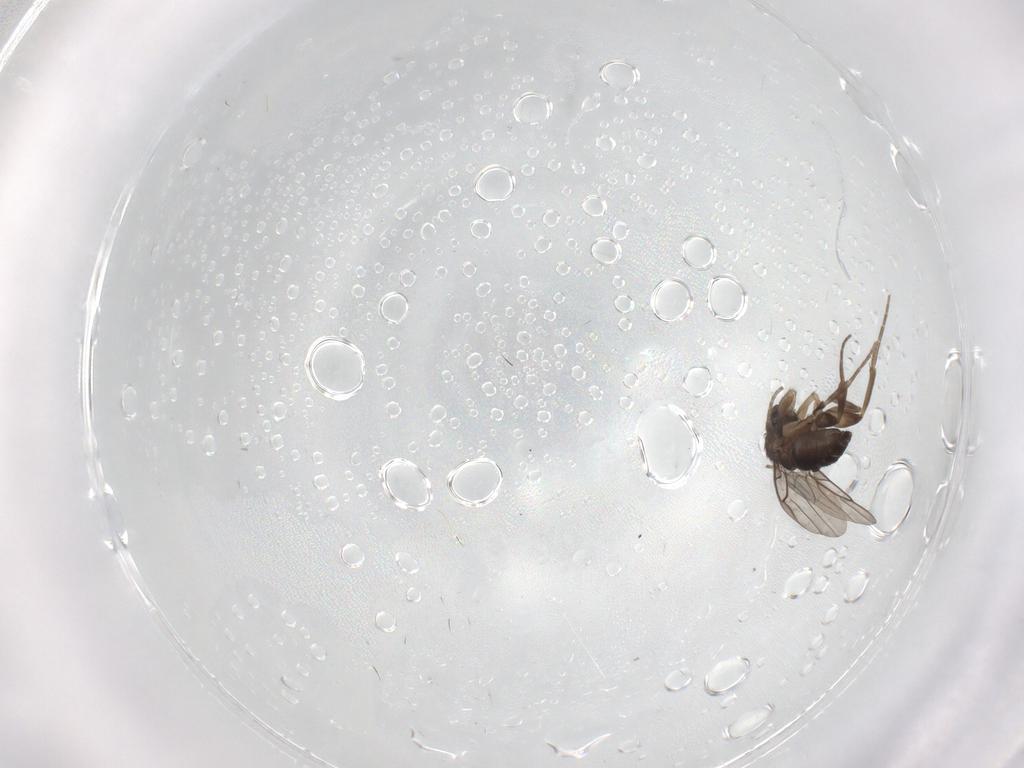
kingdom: Animalia
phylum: Arthropoda
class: Insecta
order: Diptera
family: Phoridae
